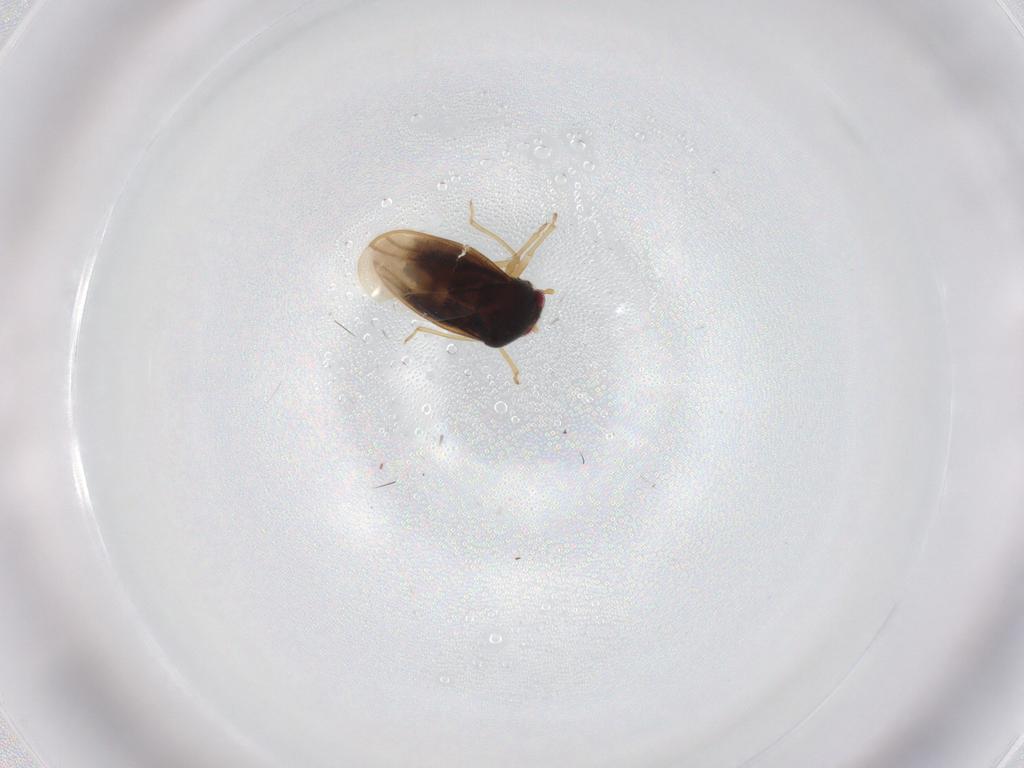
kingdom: Animalia
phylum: Arthropoda
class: Insecta
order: Hemiptera
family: Schizopteridae
